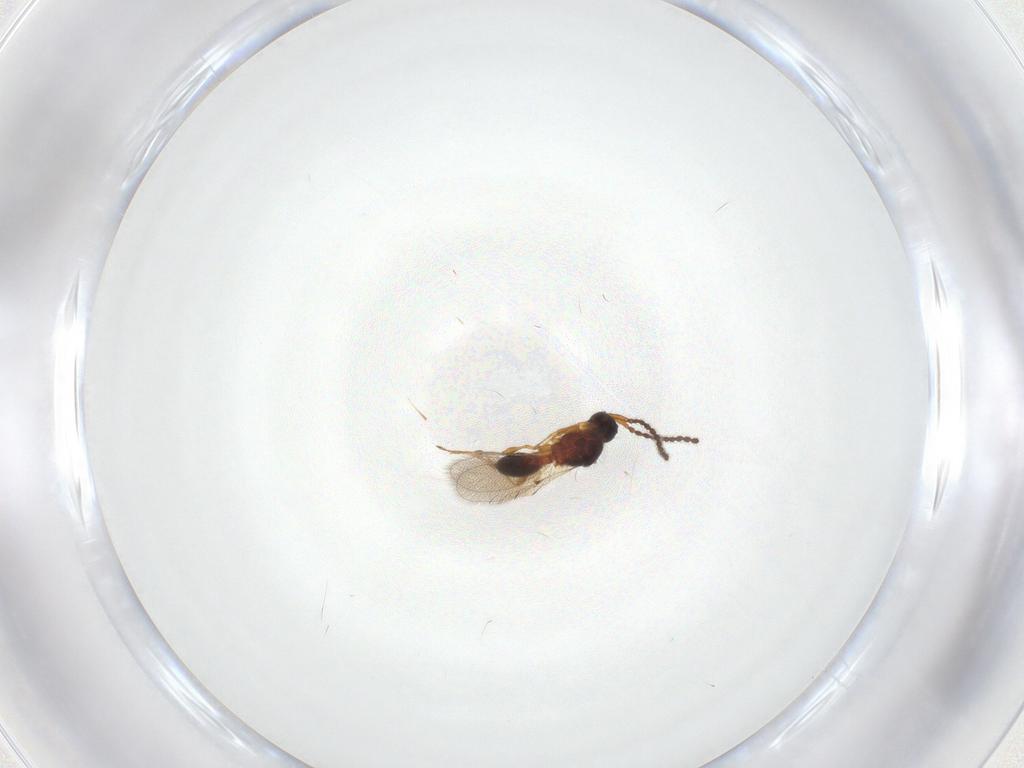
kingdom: Animalia
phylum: Arthropoda
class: Insecta
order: Hymenoptera
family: Diapriidae
